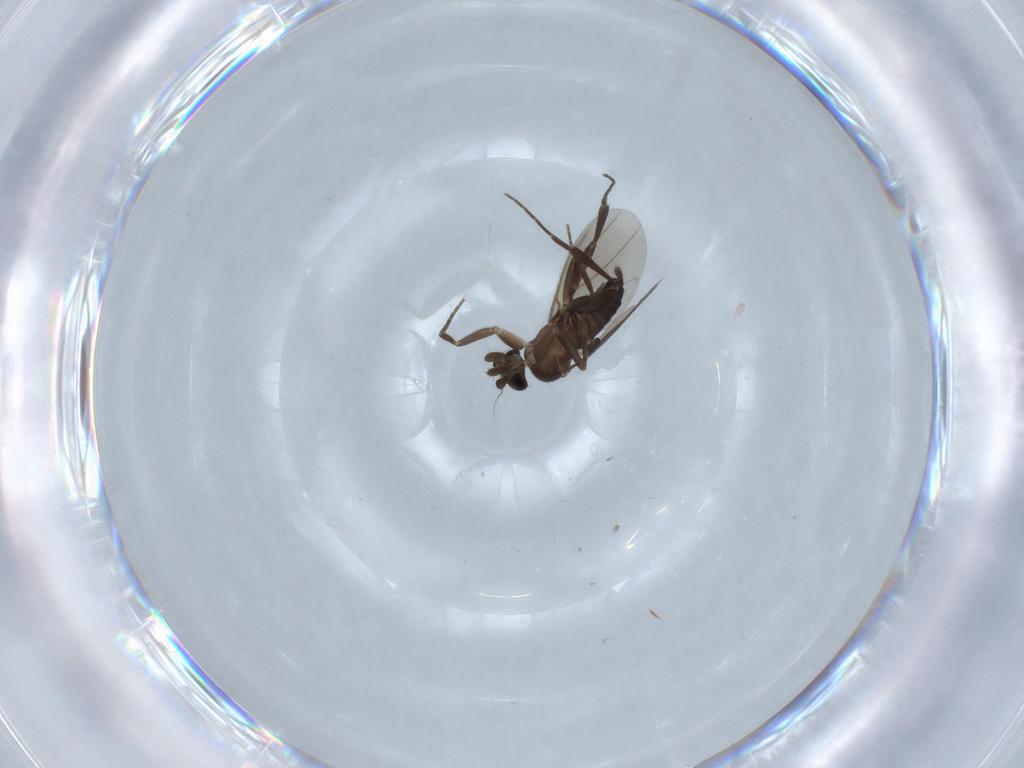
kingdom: Animalia
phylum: Arthropoda
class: Insecta
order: Diptera
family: Phoridae
